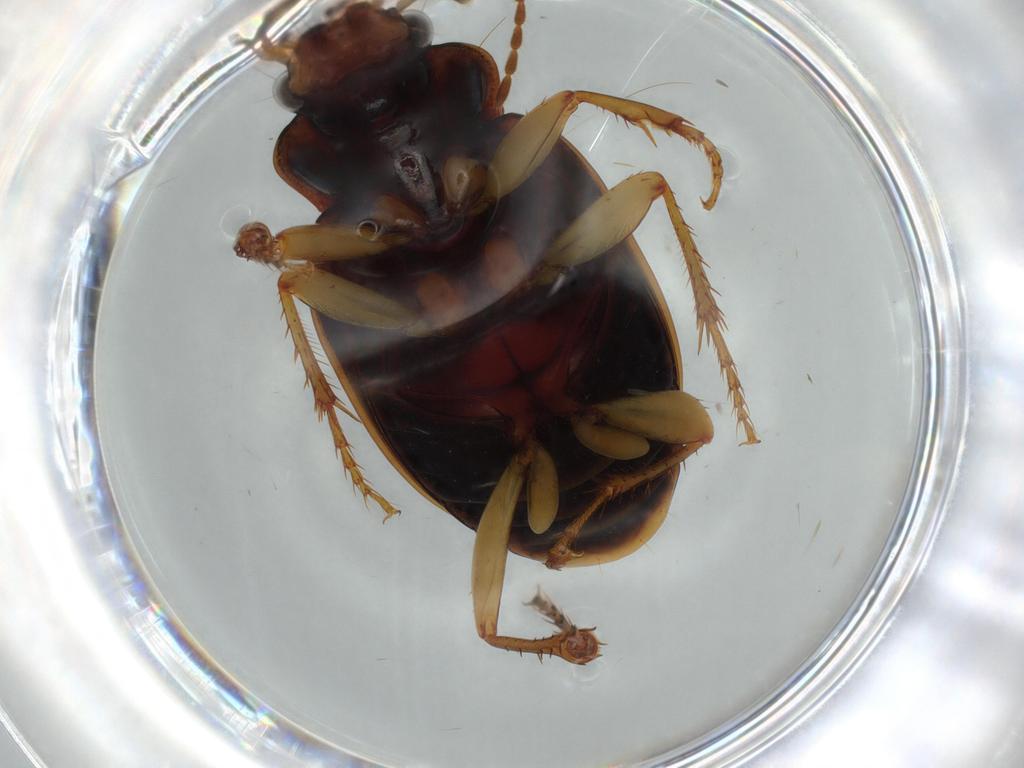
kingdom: Animalia
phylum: Arthropoda
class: Insecta
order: Coleoptera
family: Carabidae
